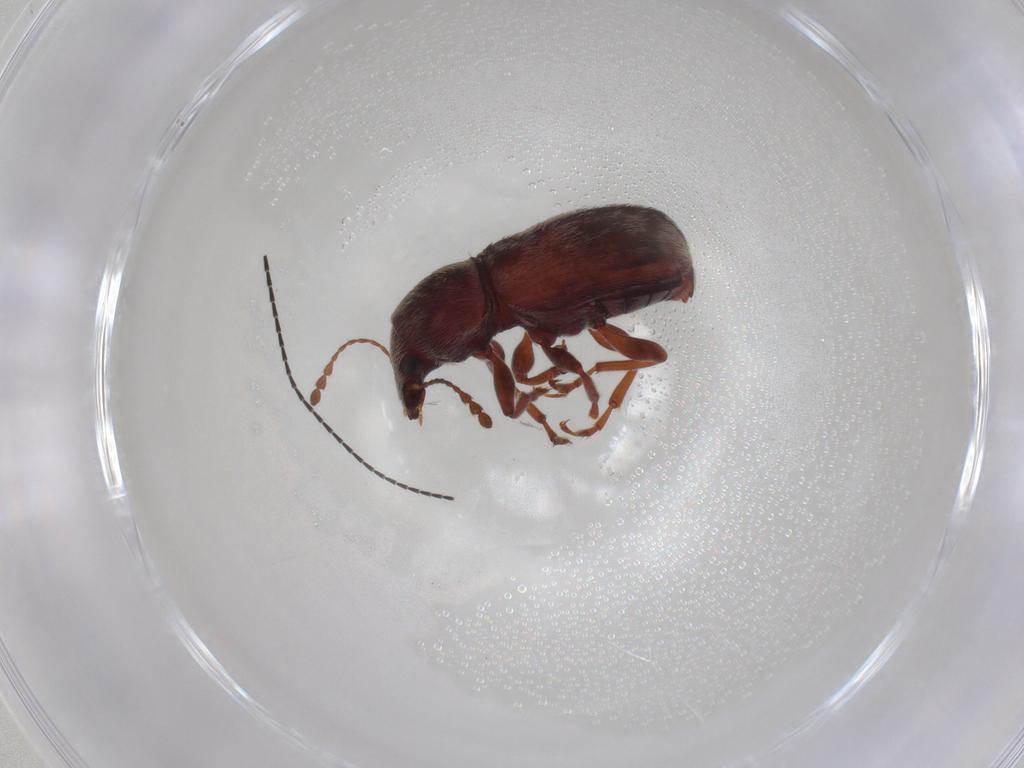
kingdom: Animalia
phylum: Arthropoda
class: Insecta
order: Coleoptera
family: Anthribidae
